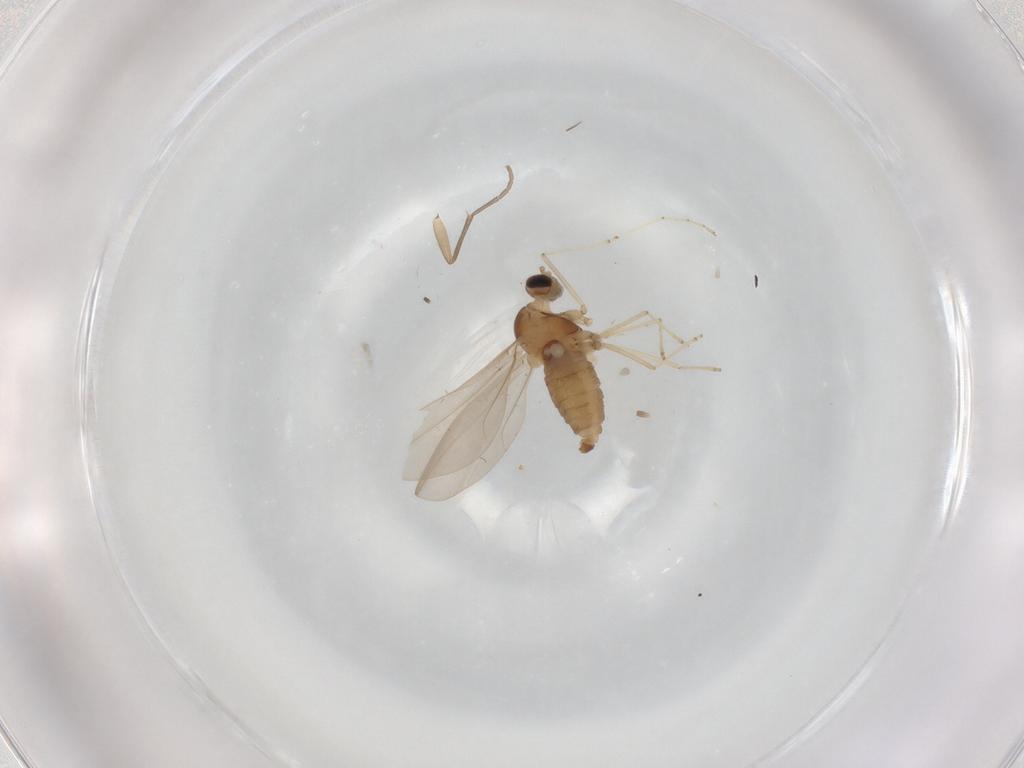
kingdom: Animalia
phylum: Arthropoda
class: Insecta
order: Diptera
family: Cecidomyiidae
